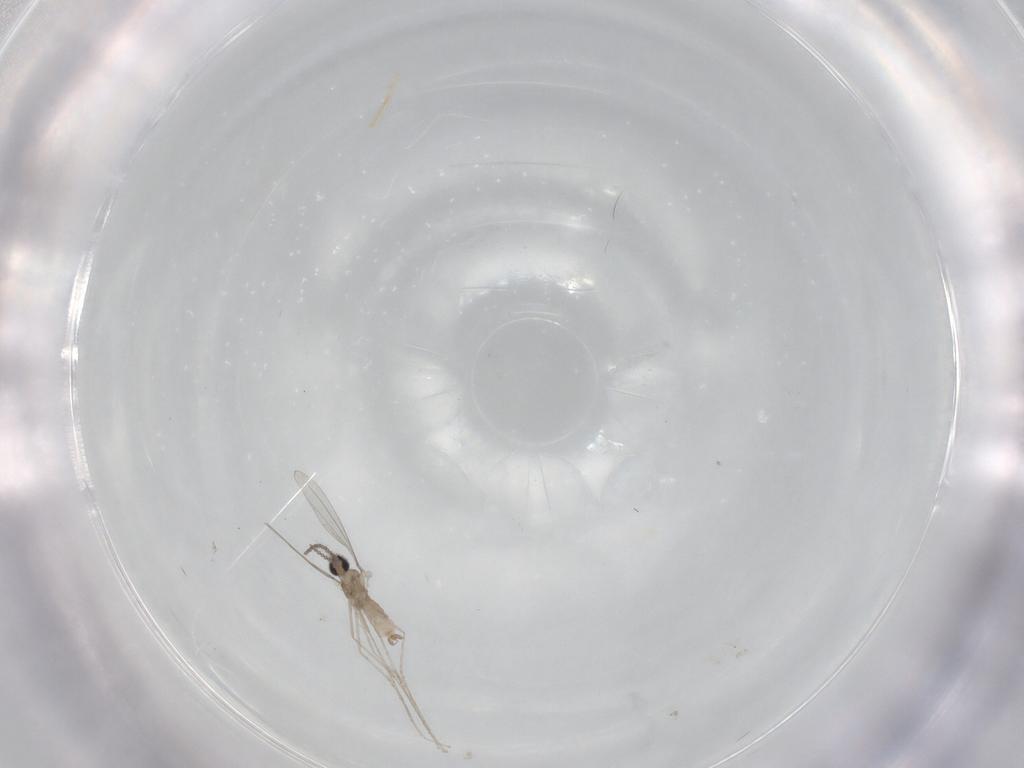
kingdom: Animalia
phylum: Arthropoda
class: Insecta
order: Diptera
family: Cecidomyiidae
